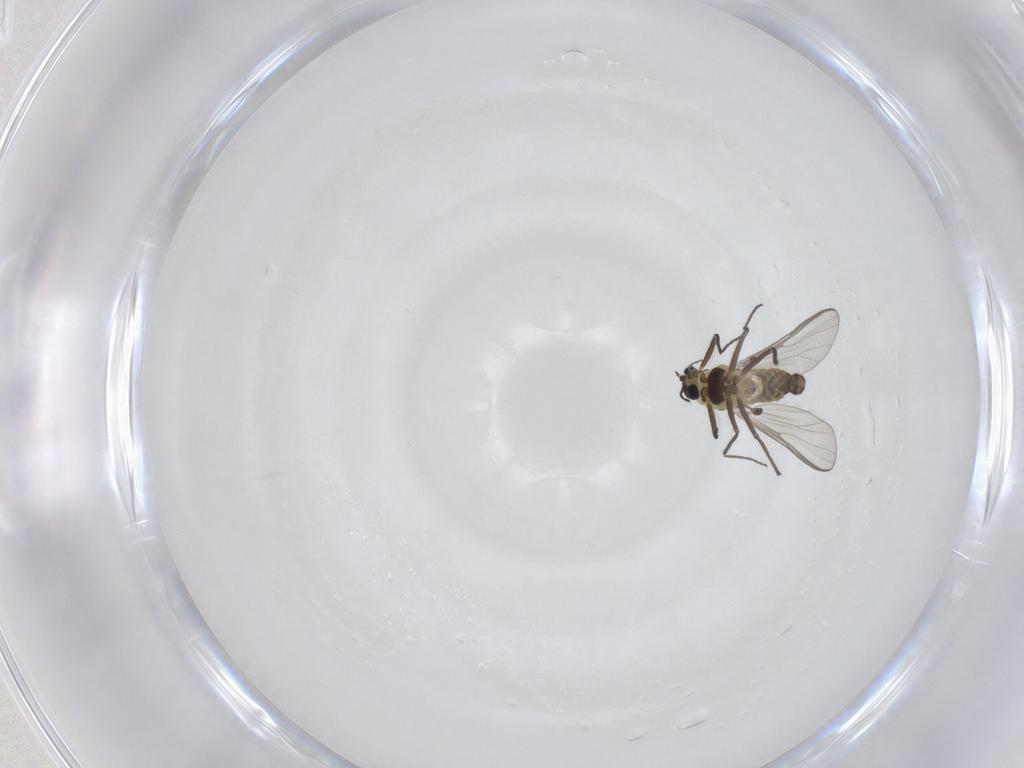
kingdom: Animalia
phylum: Arthropoda
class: Insecta
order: Diptera
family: Chironomidae
